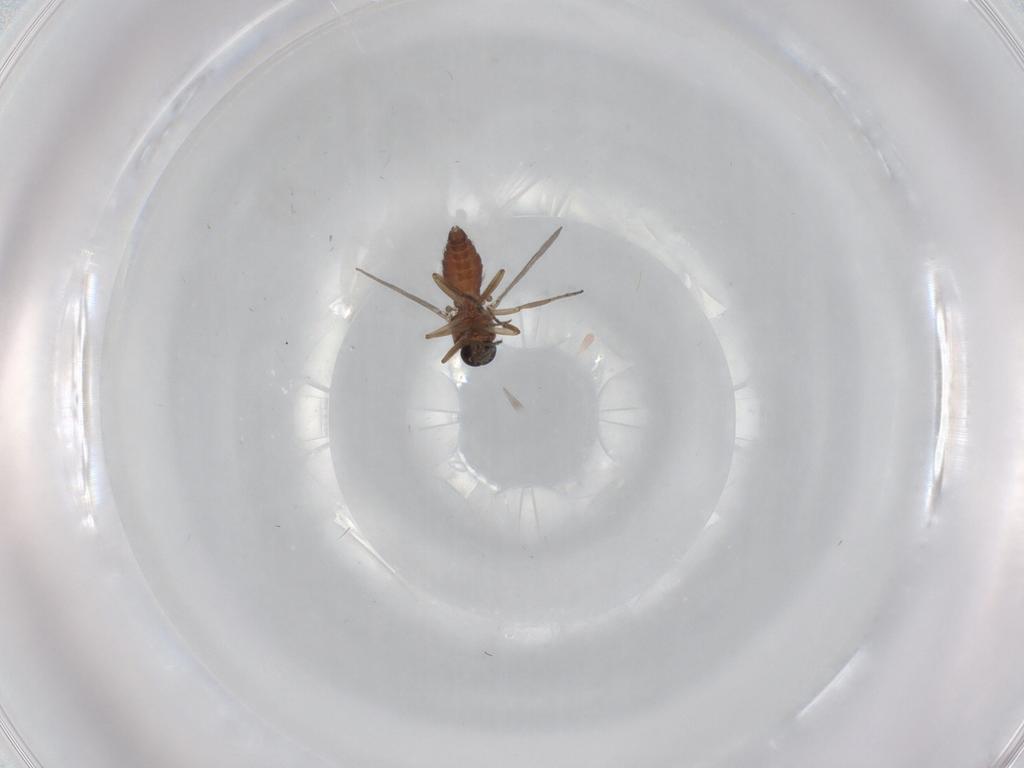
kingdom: Animalia
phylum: Arthropoda
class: Insecta
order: Diptera
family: Ceratopogonidae
